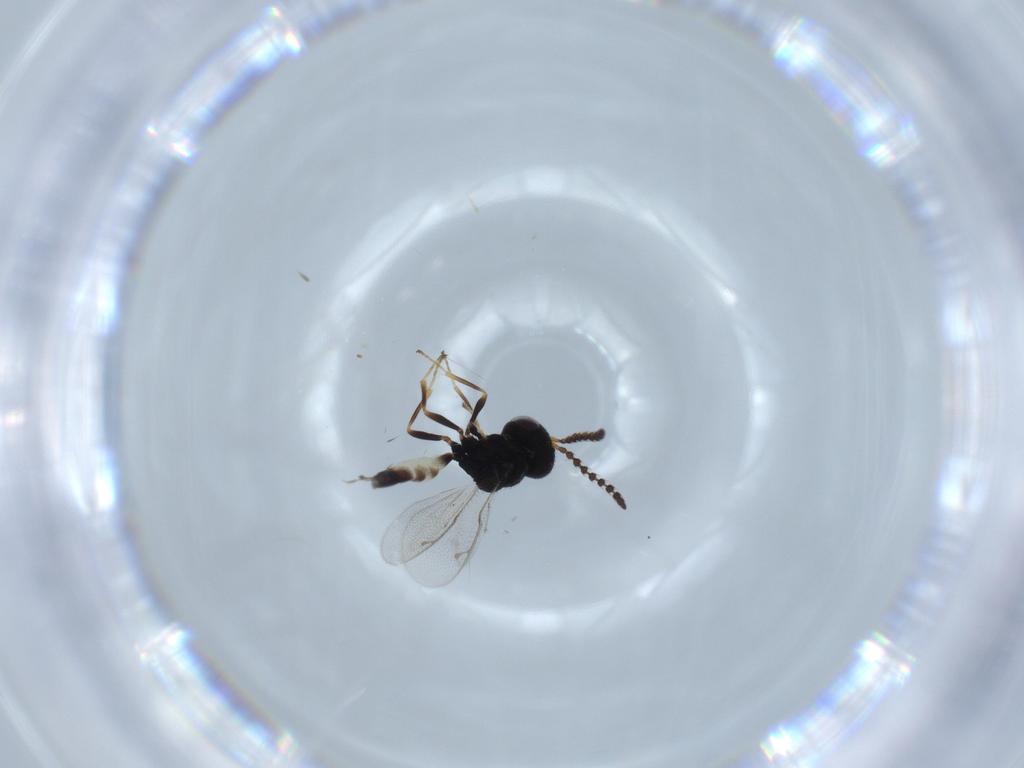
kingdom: Animalia
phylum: Arthropoda
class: Insecta
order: Hymenoptera
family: Pteromalidae
